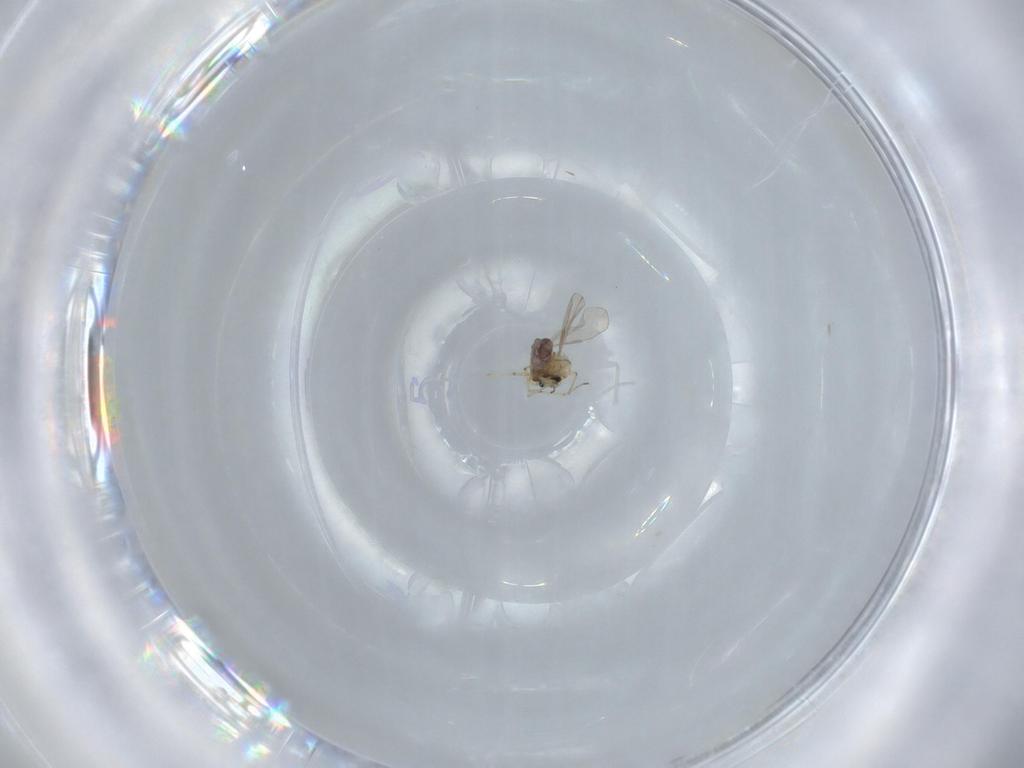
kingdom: Animalia
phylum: Arthropoda
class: Insecta
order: Diptera
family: Chironomidae
